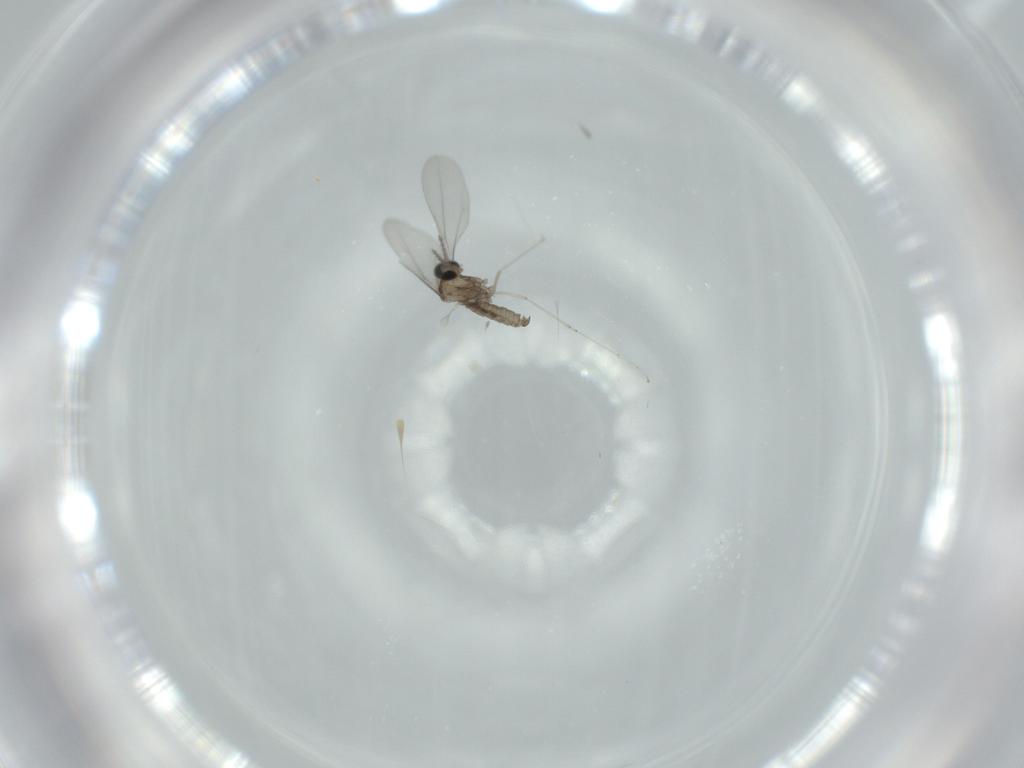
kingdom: Animalia
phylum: Arthropoda
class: Insecta
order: Diptera
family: Cecidomyiidae
